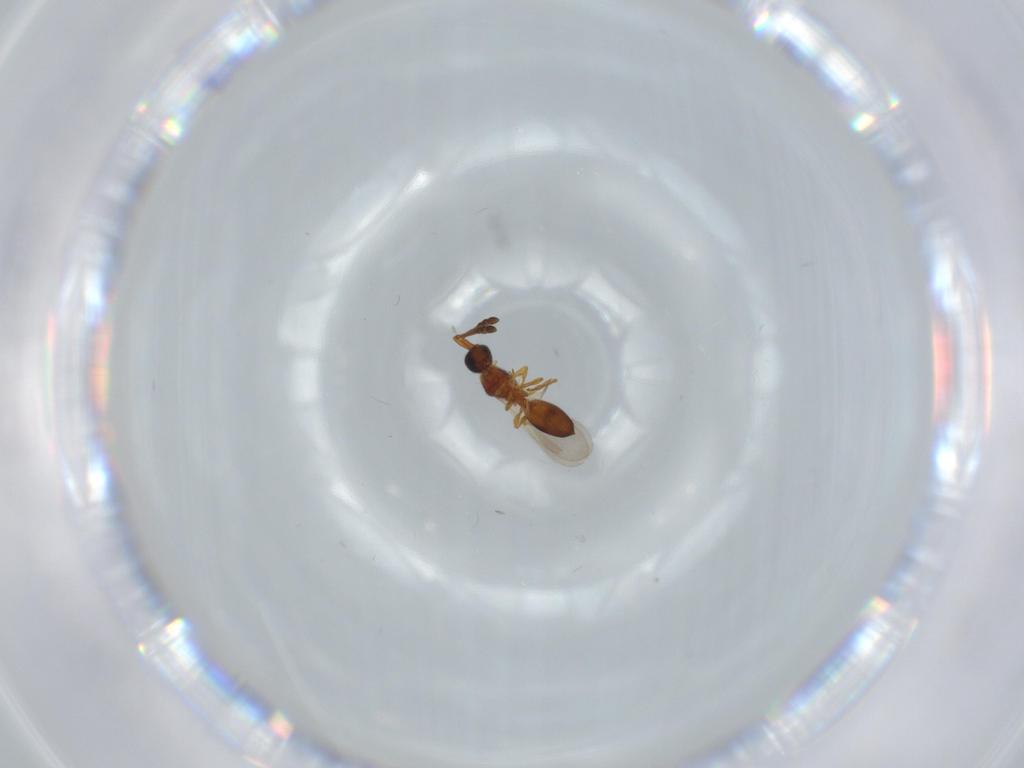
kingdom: Animalia
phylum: Arthropoda
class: Insecta
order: Hymenoptera
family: Diapriidae
